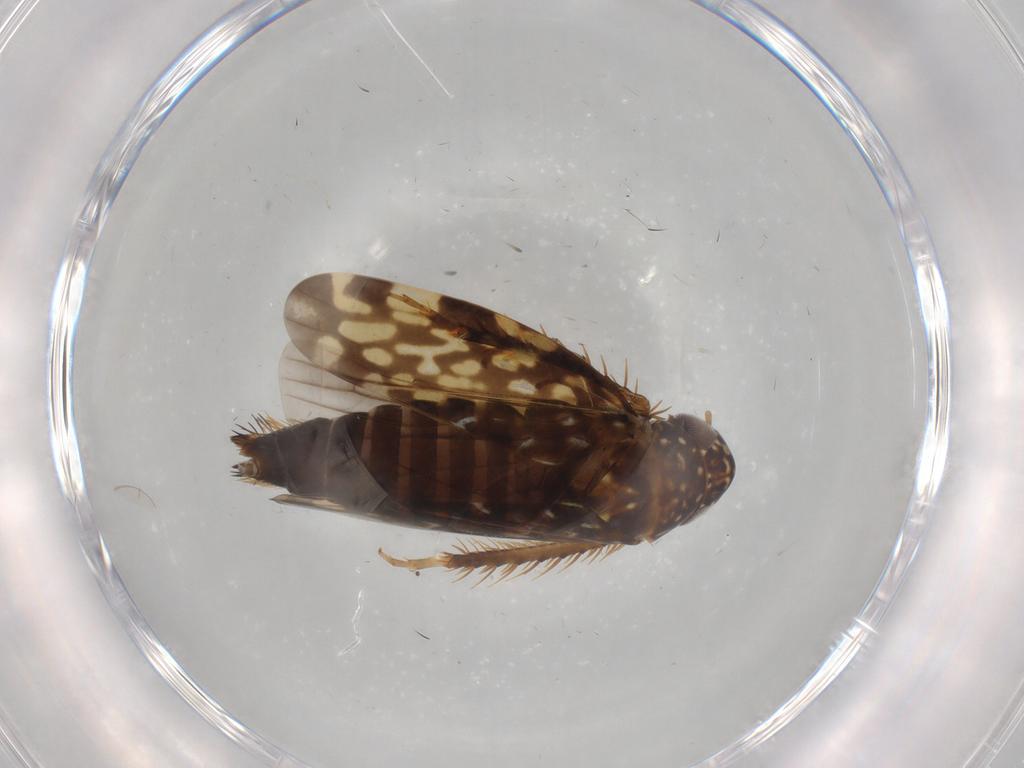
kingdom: Animalia
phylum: Arthropoda
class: Insecta
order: Hemiptera
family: Cicadellidae
